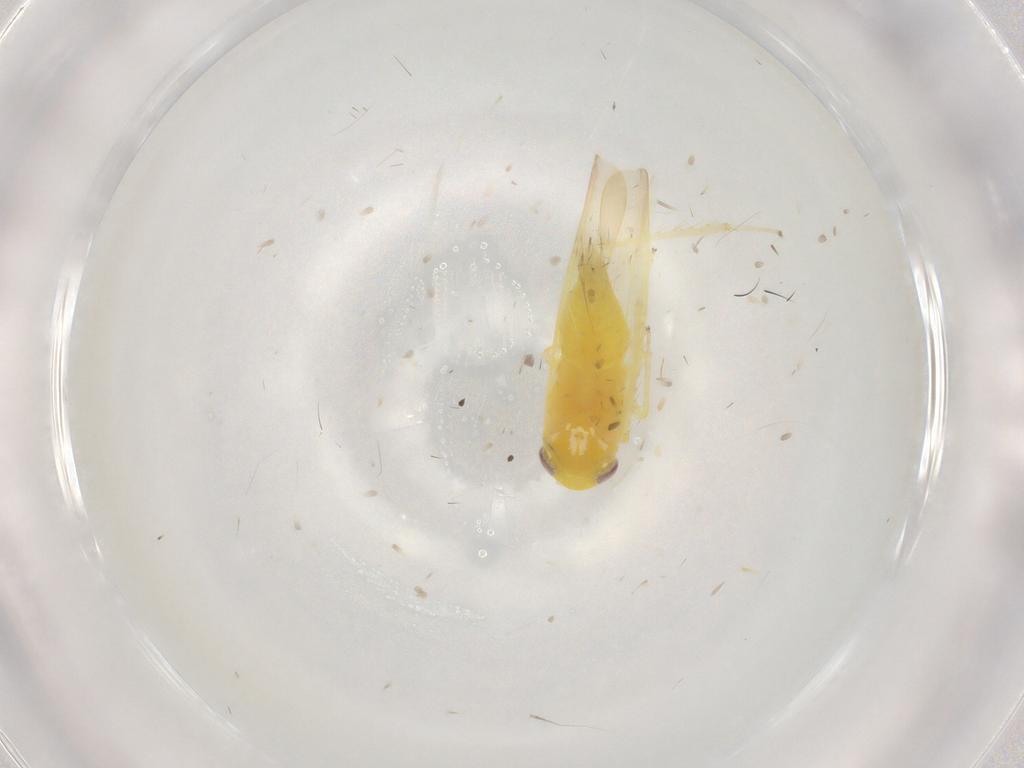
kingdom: Animalia
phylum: Arthropoda
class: Insecta
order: Hemiptera
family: Cicadellidae
